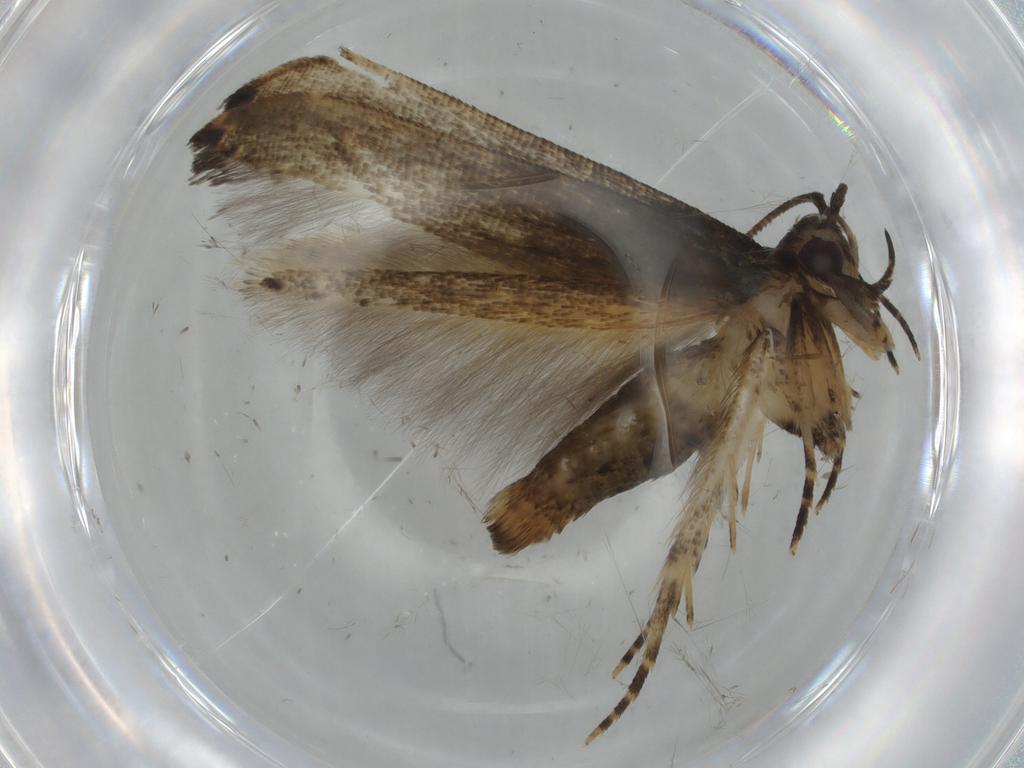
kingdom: Animalia
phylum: Arthropoda
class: Insecta
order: Lepidoptera
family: Cosmopterigidae
